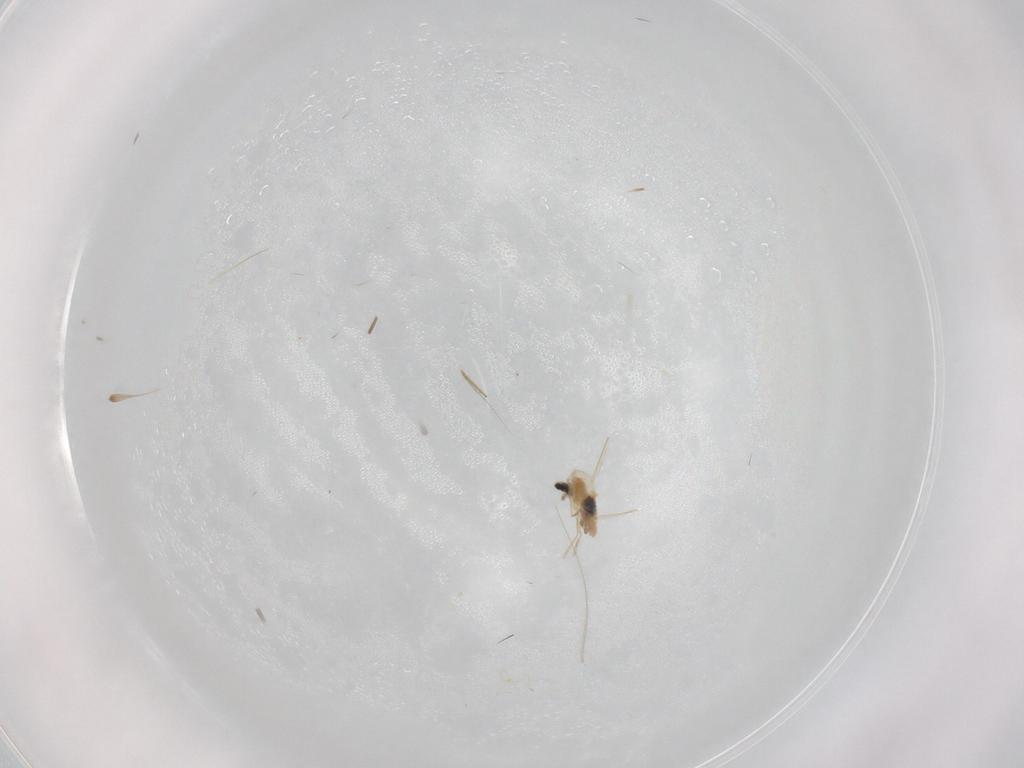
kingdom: Animalia
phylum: Arthropoda
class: Insecta
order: Diptera
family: Cecidomyiidae
